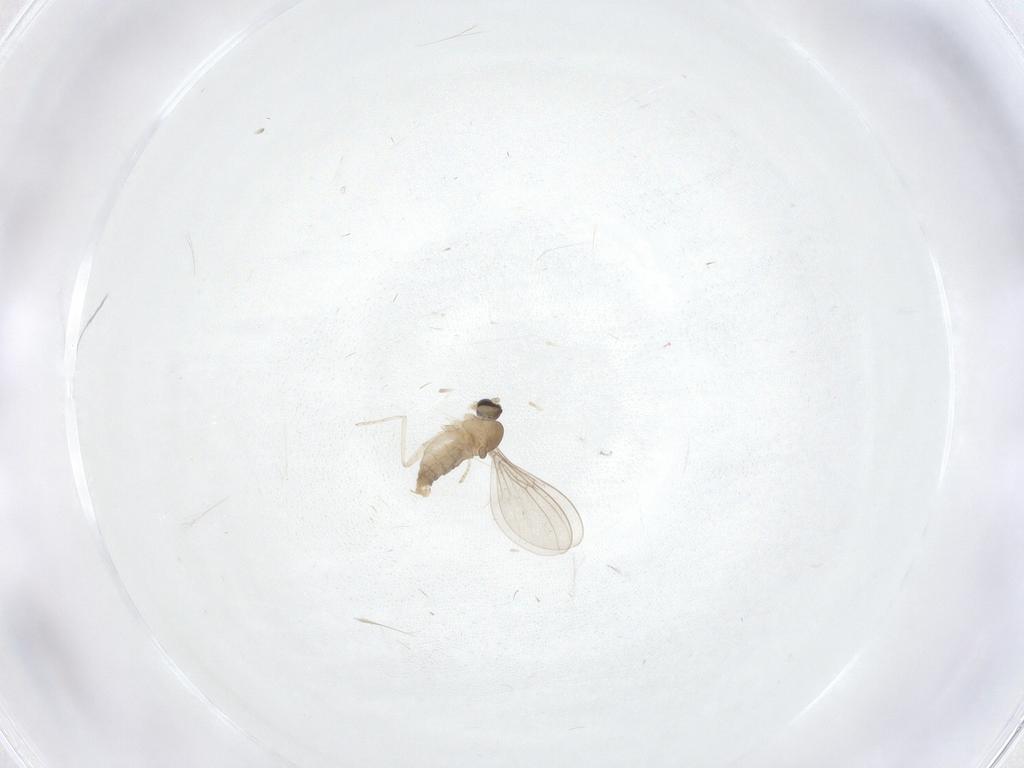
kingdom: Animalia
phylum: Arthropoda
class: Insecta
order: Diptera
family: Cecidomyiidae
